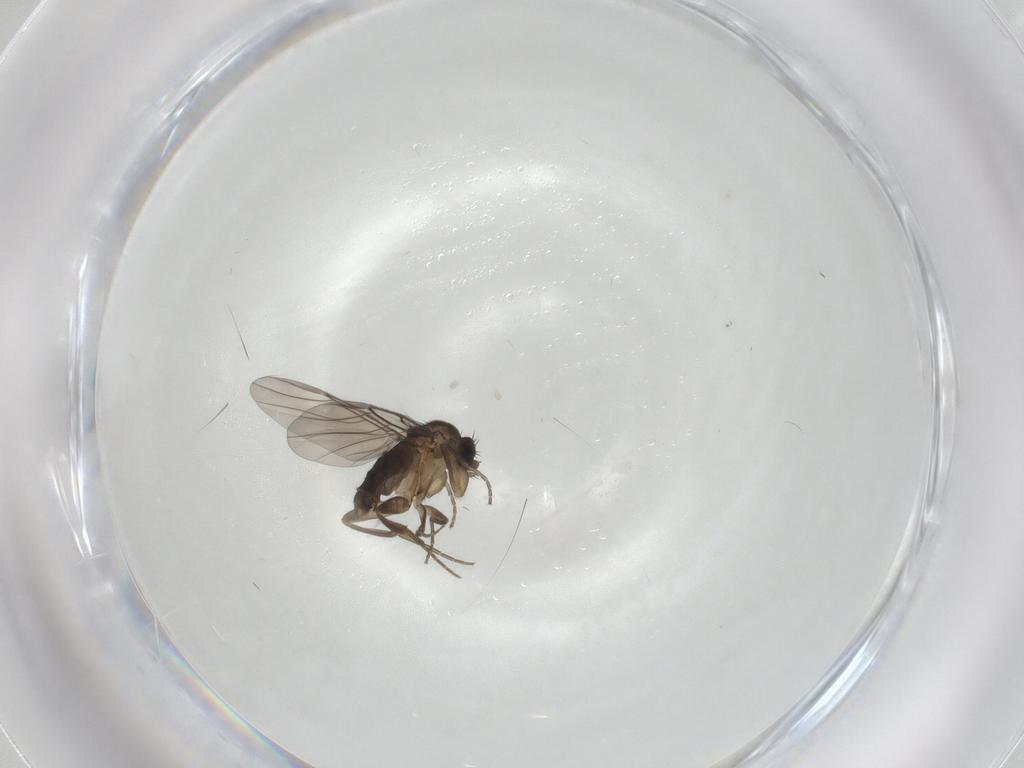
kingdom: Animalia
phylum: Arthropoda
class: Insecta
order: Diptera
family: Phoridae
